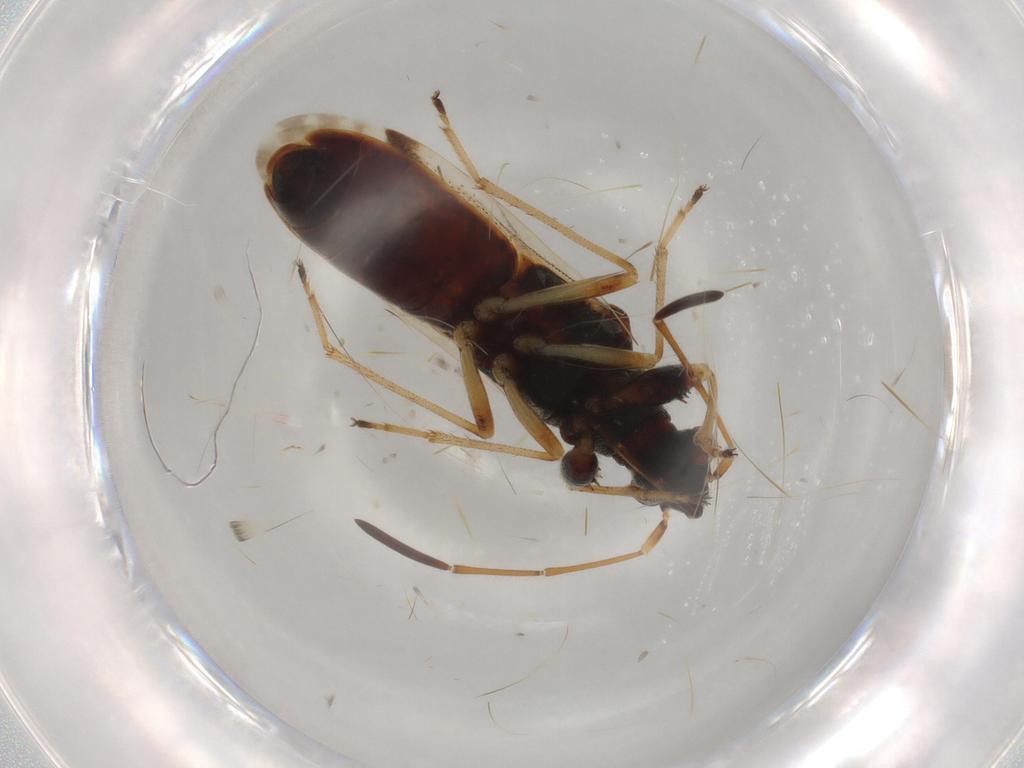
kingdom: Animalia
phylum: Arthropoda
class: Insecta
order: Hemiptera
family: Rhyparochromidae
